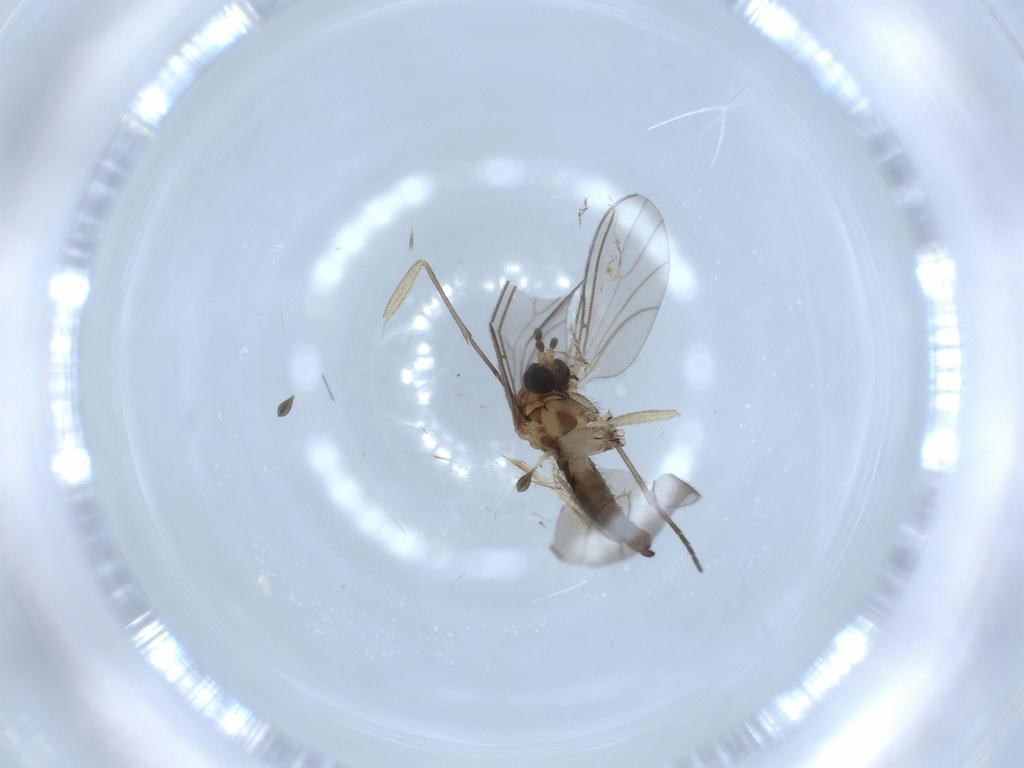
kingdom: Animalia
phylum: Arthropoda
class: Insecta
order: Diptera
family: Sciaridae
